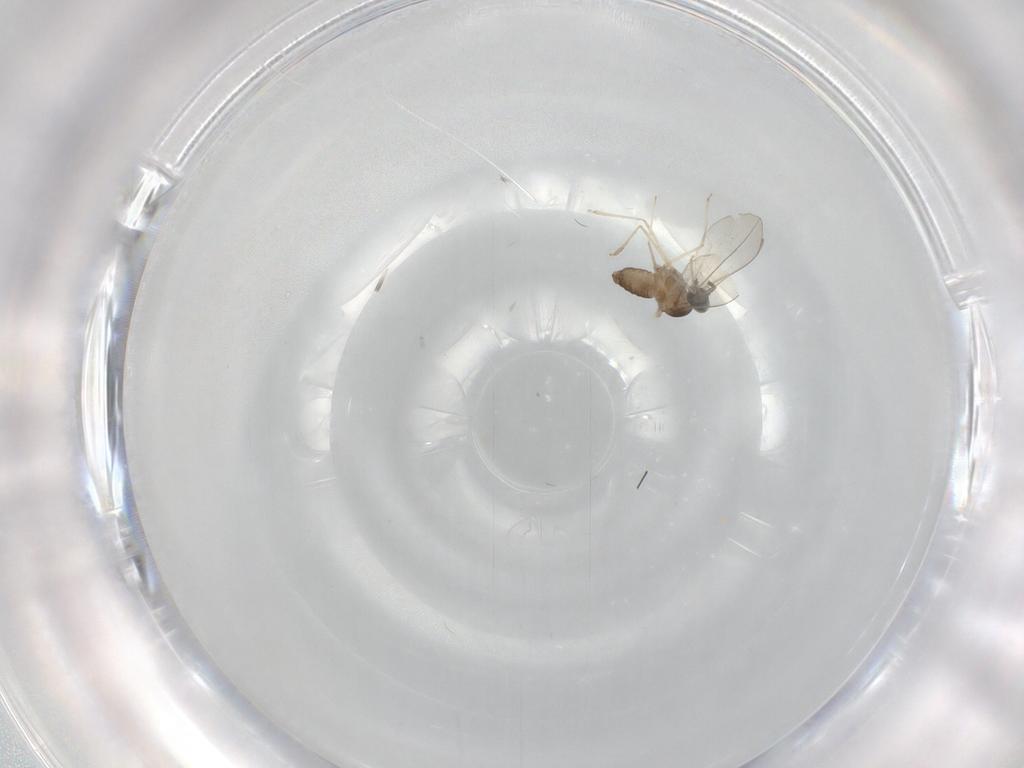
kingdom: Animalia
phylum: Arthropoda
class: Insecta
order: Diptera
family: Cecidomyiidae
